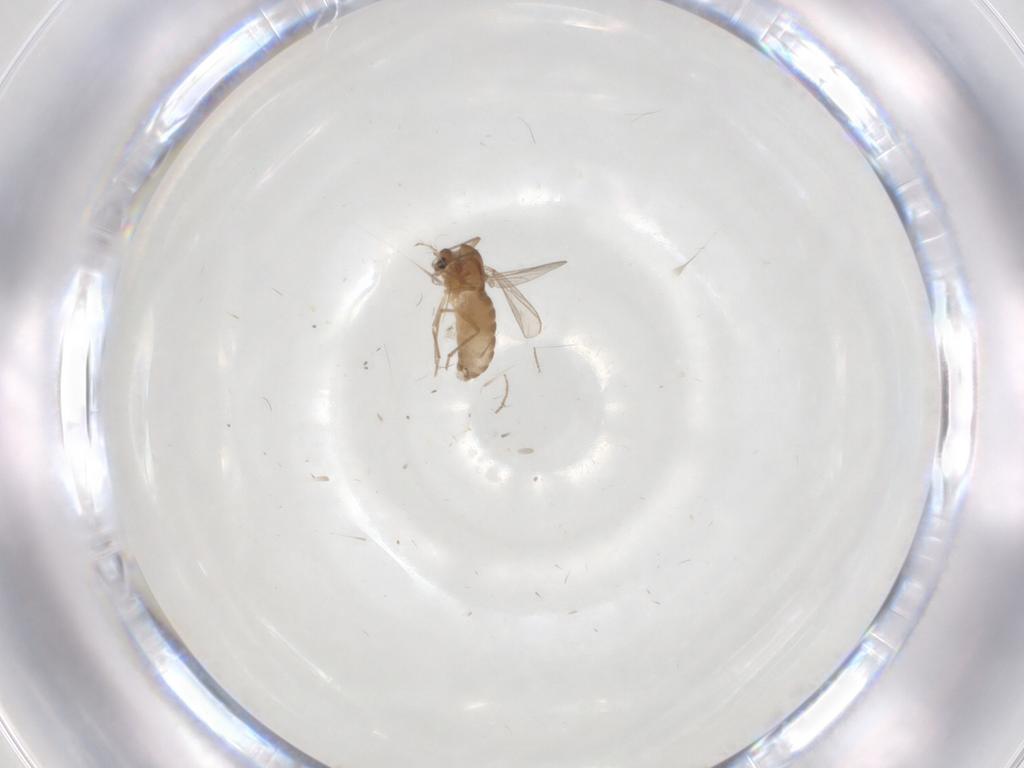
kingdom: Animalia
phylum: Arthropoda
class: Insecta
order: Diptera
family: Chironomidae
